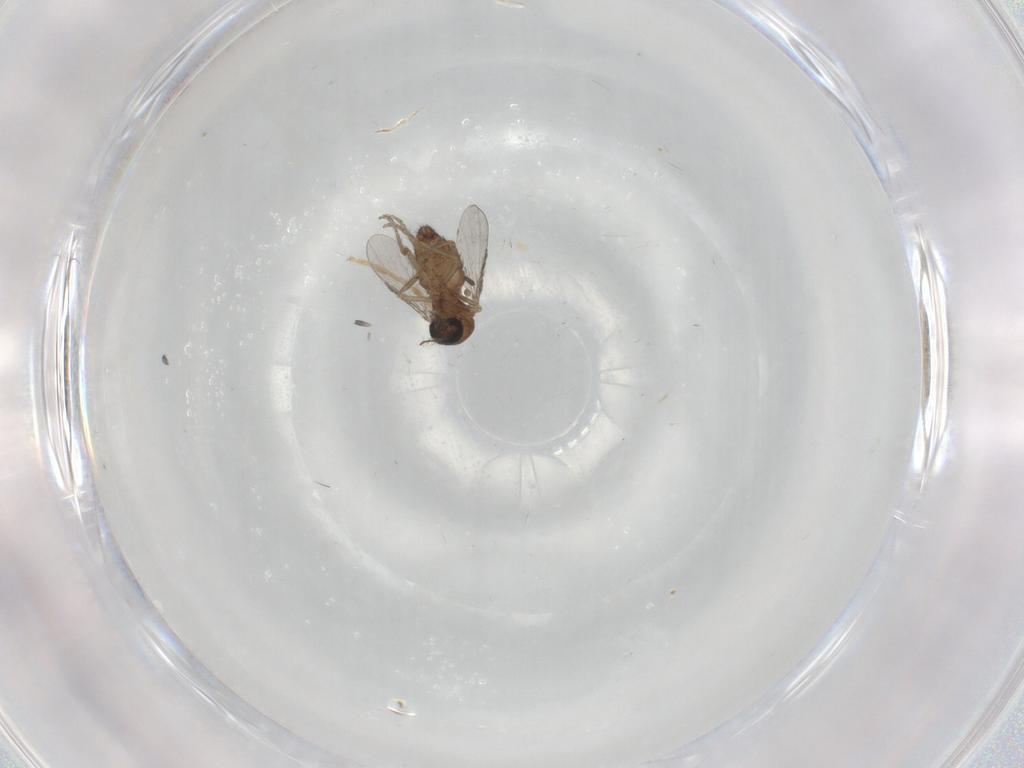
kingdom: Animalia
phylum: Arthropoda
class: Insecta
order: Diptera
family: Ceratopogonidae
